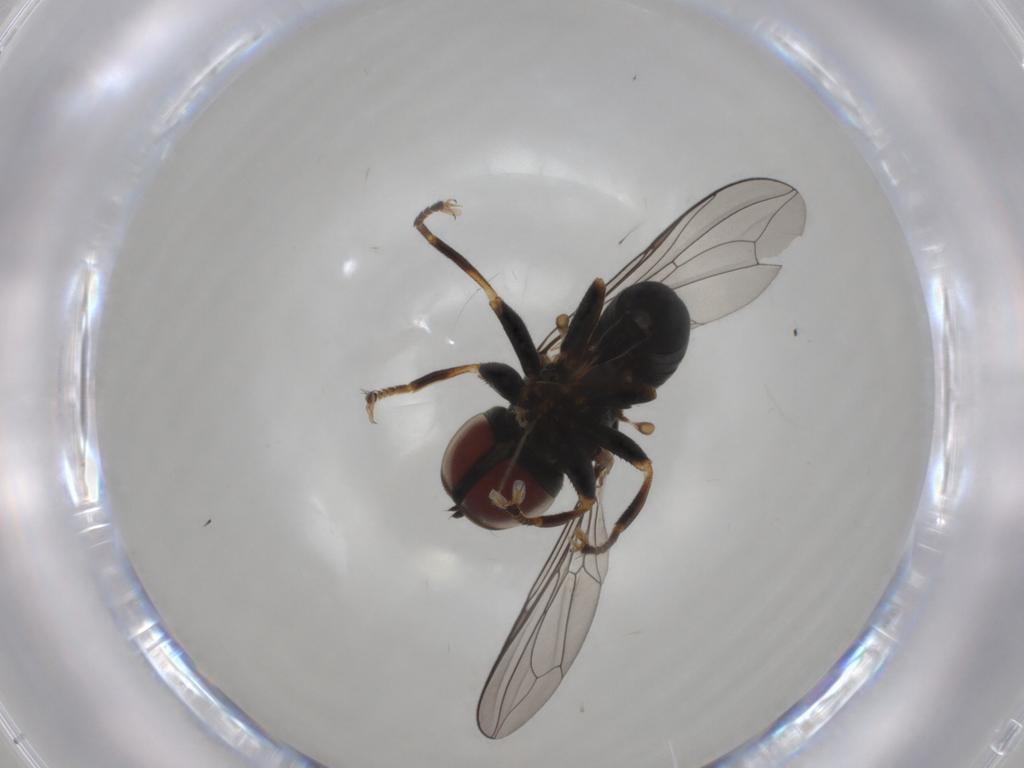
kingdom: Animalia
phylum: Arthropoda
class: Insecta
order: Diptera
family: Pipunculidae
